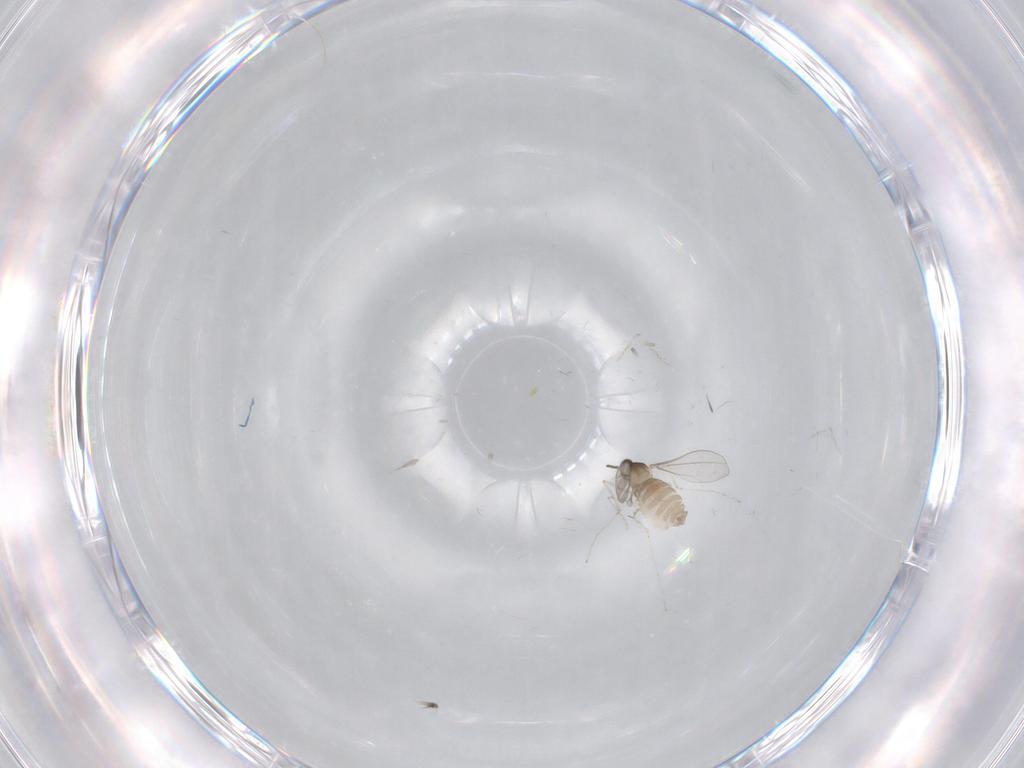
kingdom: Animalia
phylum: Arthropoda
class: Insecta
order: Diptera
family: Cecidomyiidae
